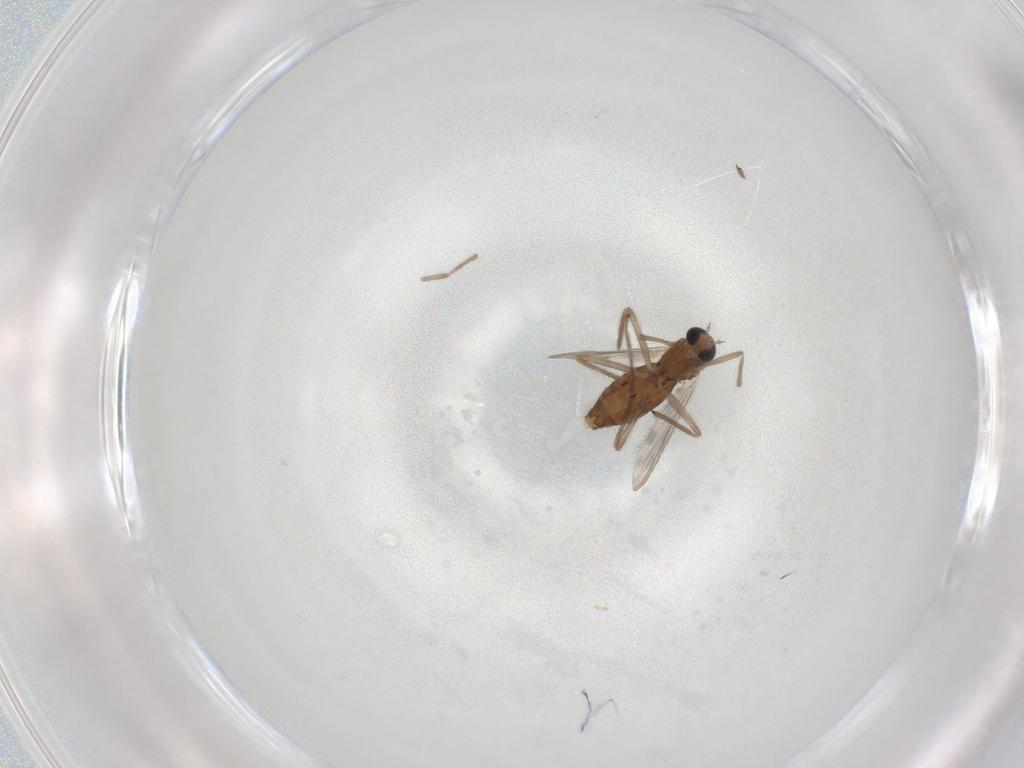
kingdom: Animalia
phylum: Arthropoda
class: Insecta
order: Diptera
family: Chironomidae
